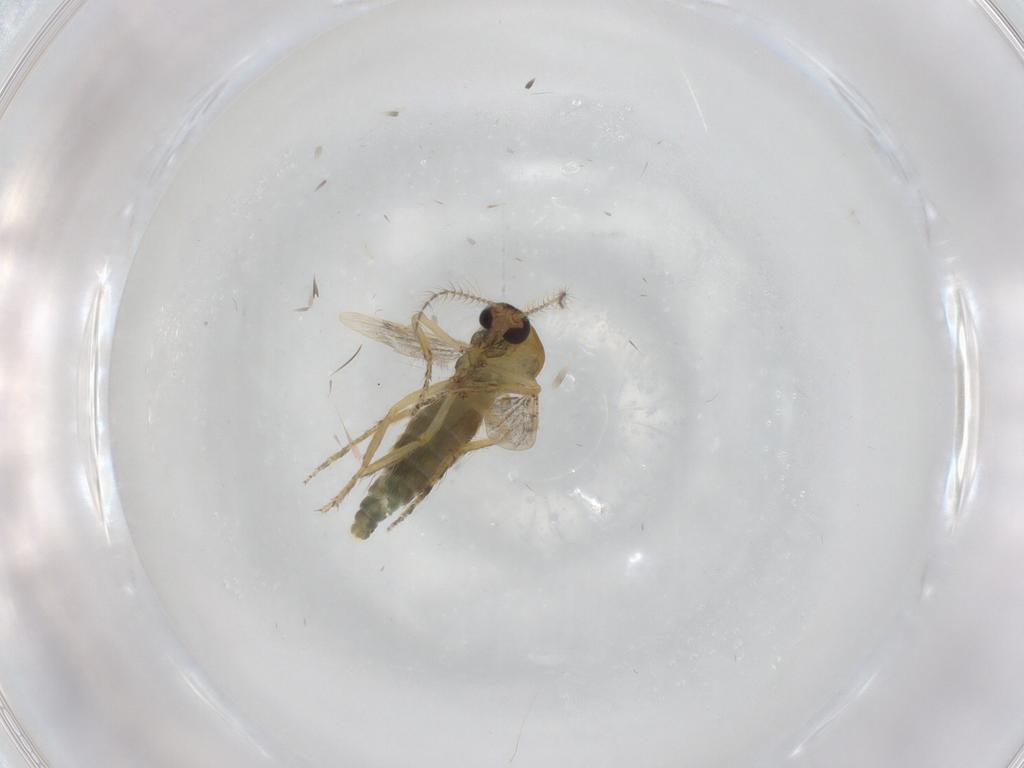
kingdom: Animalia
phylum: Arthropoda
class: Insecta
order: Diptera
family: Ceratopogonidae
